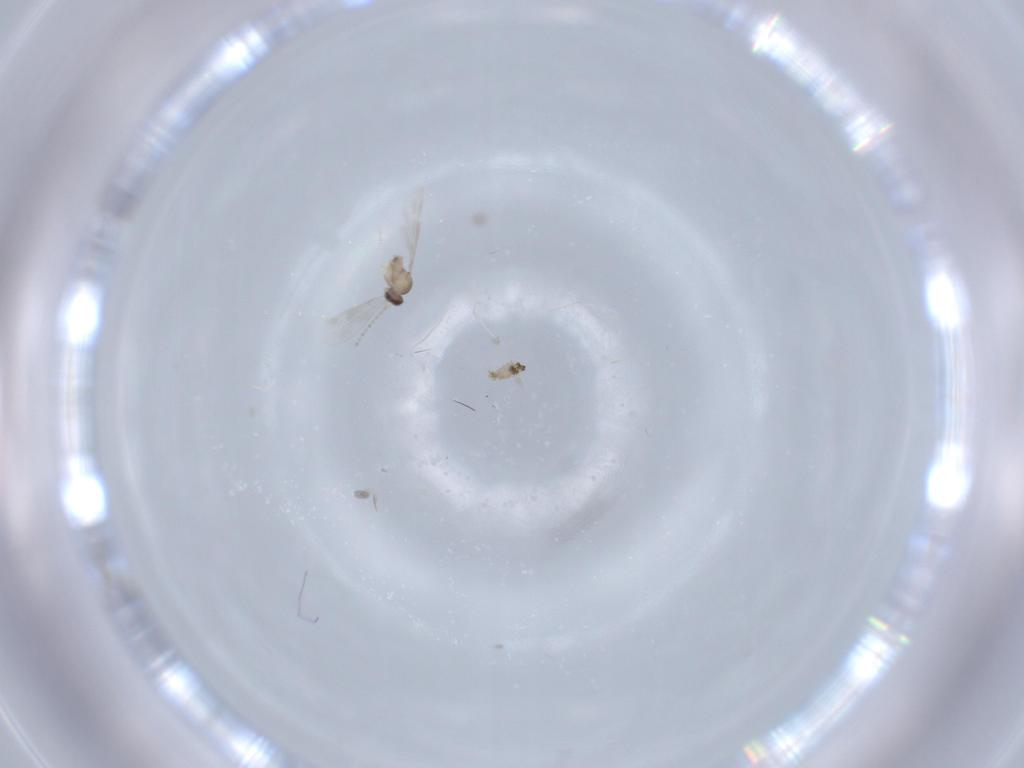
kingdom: Animalia
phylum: Arthropoda
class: Insecta
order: Diptera
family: Cecidomyiidae
